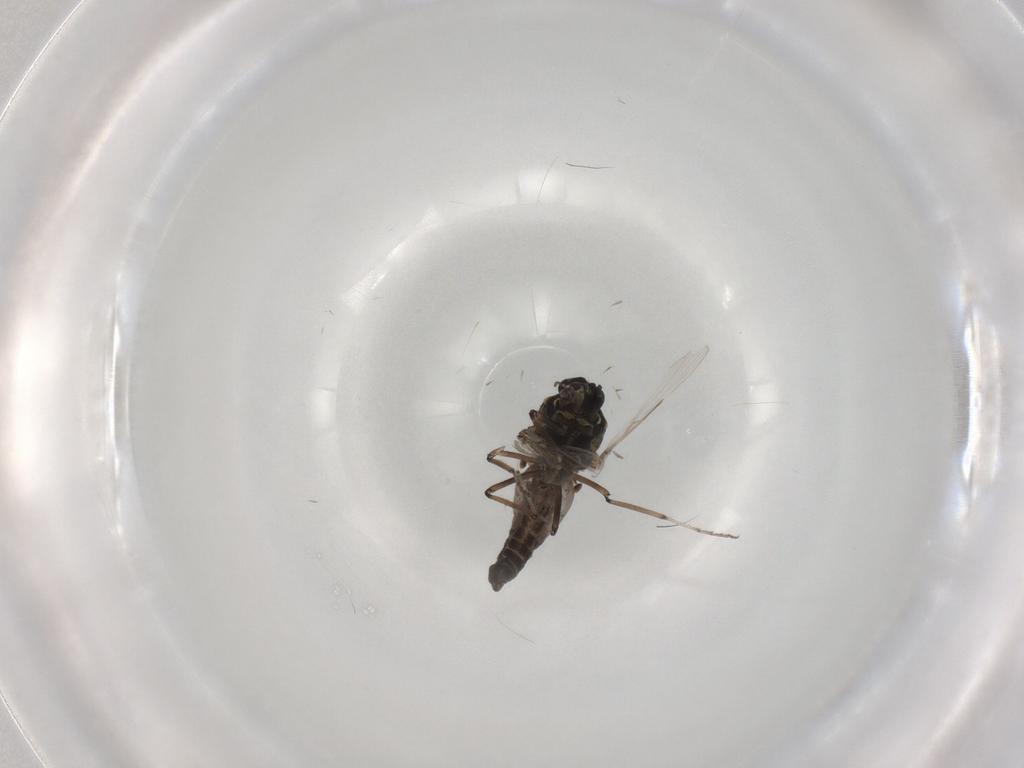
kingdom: Animalia
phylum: Arthropoda
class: Insecta
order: Diptera
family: Ceratopogonidae
